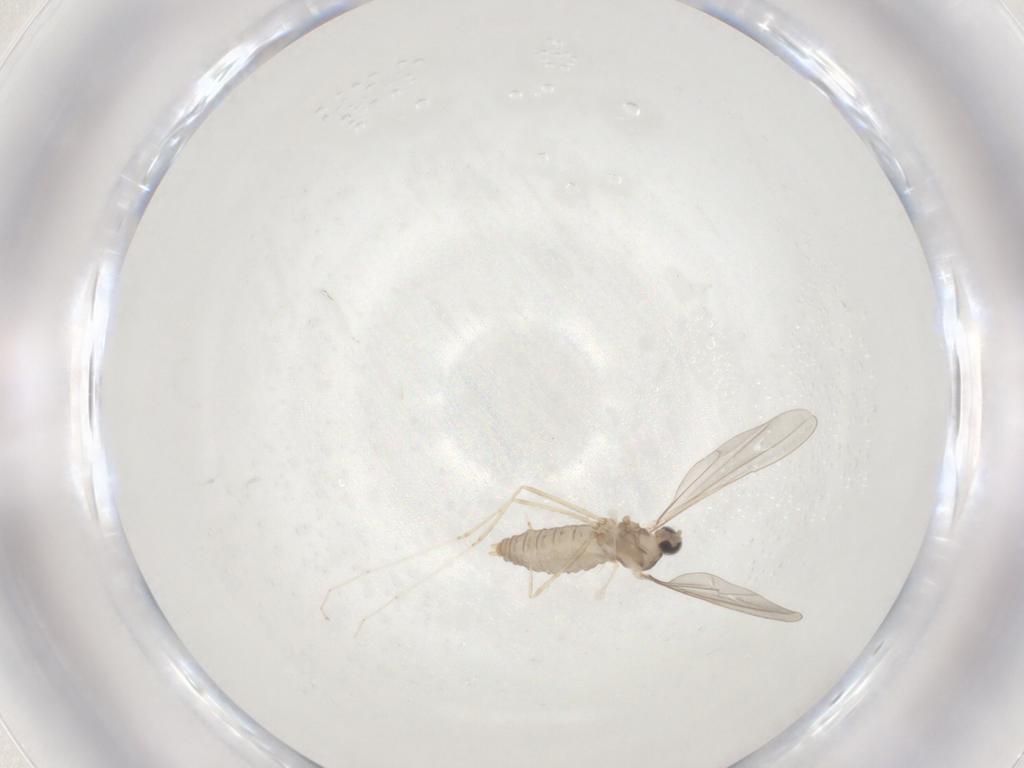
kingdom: Animalia
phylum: Arthropoda
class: Insecta
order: Diptera
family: Cecidomyiidae
